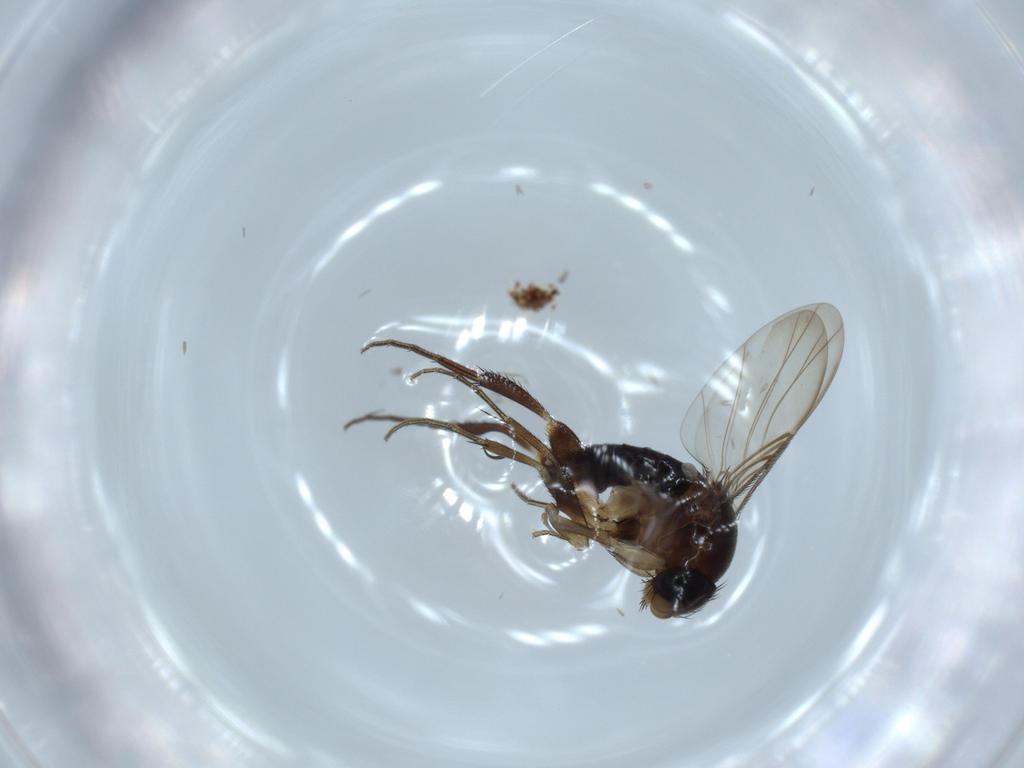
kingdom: Animalia
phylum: Arthropoda
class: Insecta
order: Diptera
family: Phoridae
